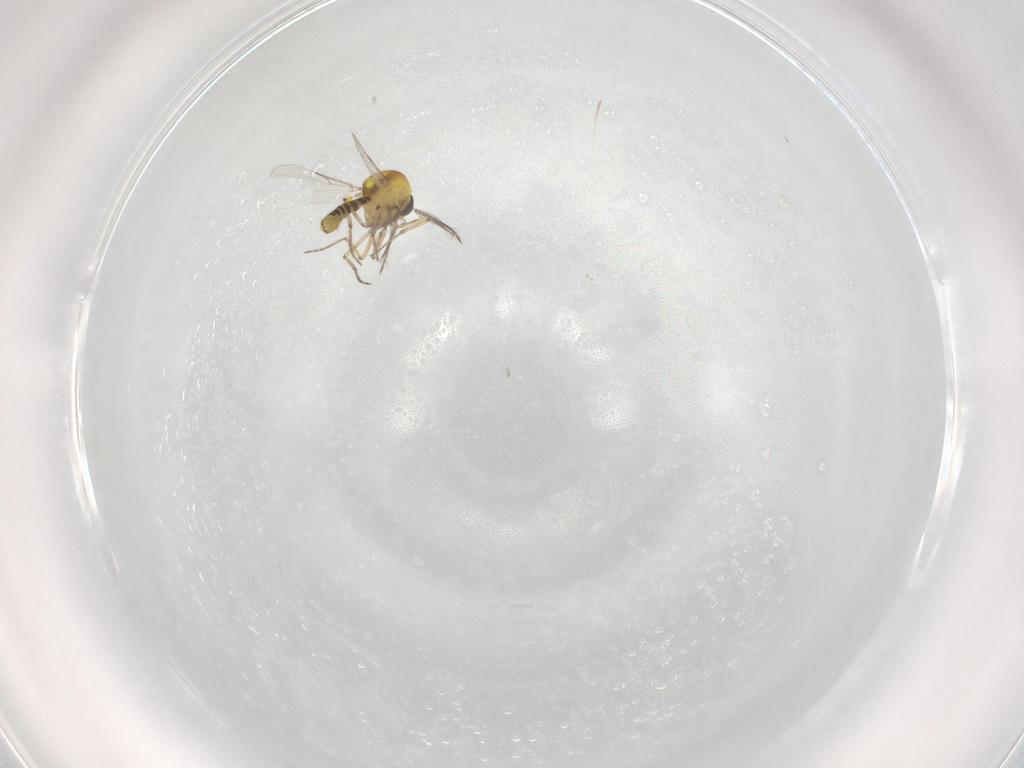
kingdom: Animalia
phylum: Arthropoda
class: Insecta
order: Diptera
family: Ceratopogonidae
